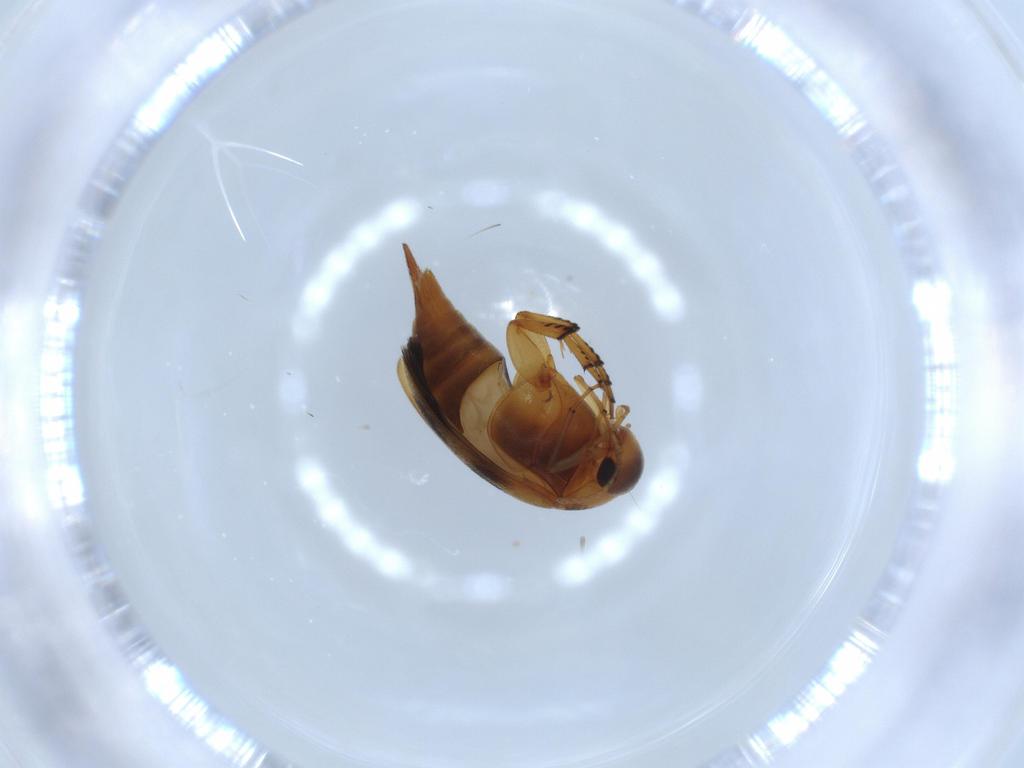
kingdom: Animalia
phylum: Arthropoda
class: Insecta
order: Coleoptera
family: Mordellidae
